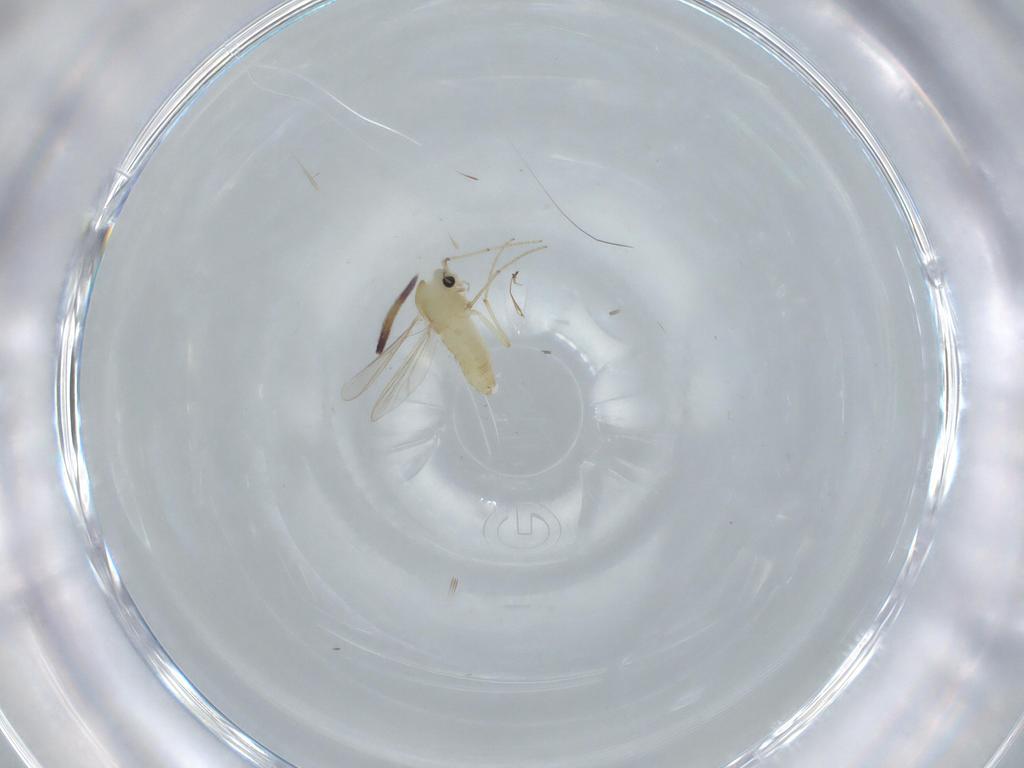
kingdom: Animalia
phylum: Arthropoda
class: Insecta
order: Diptera
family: Chironomidae
